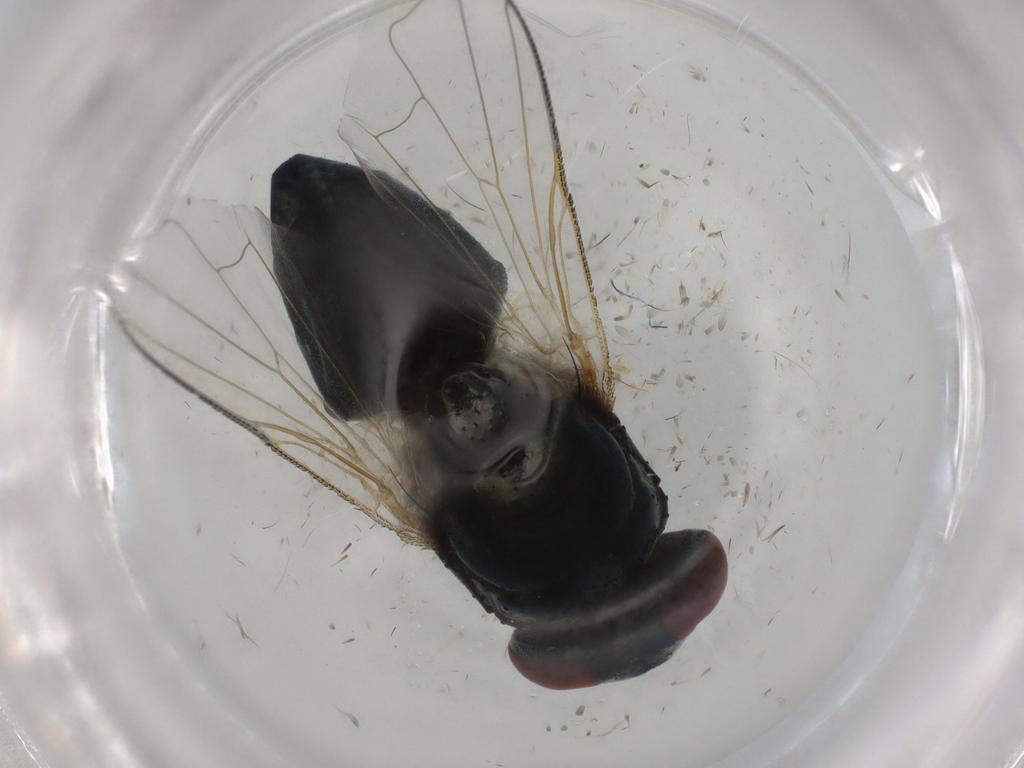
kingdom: Animalia
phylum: Arthropoda
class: Insecta
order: Diptera
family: Muscidae
